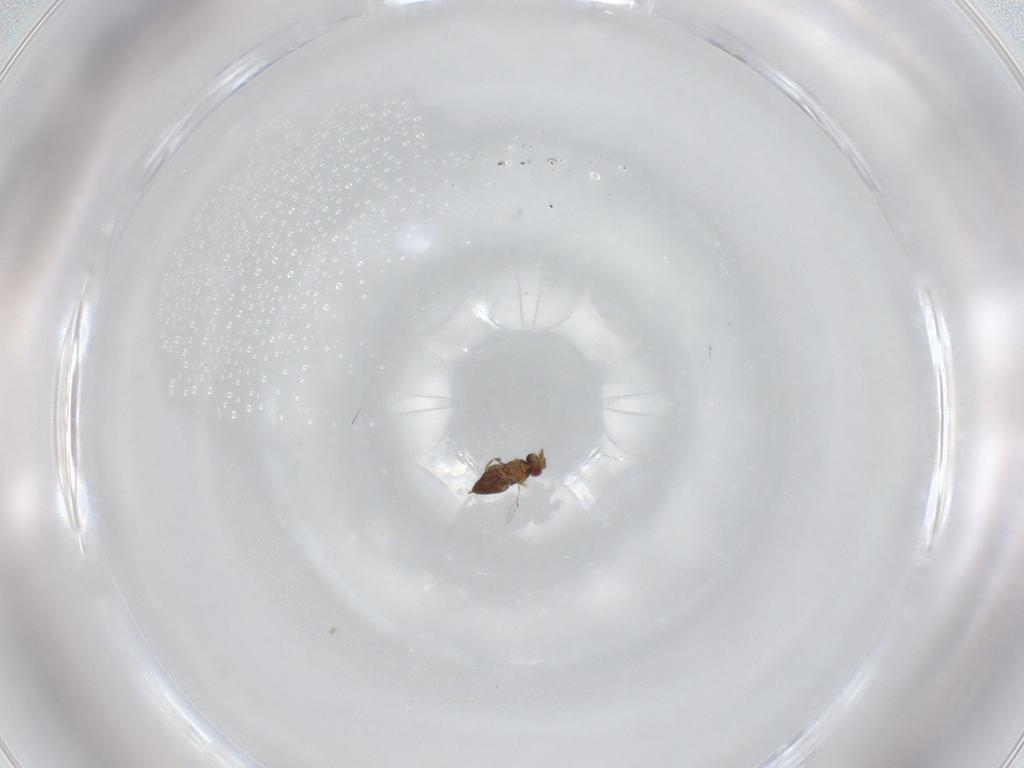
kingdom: Animalia
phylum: Arthropoda
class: Insecta
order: Hymenoptera
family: Trichogrammatidae
